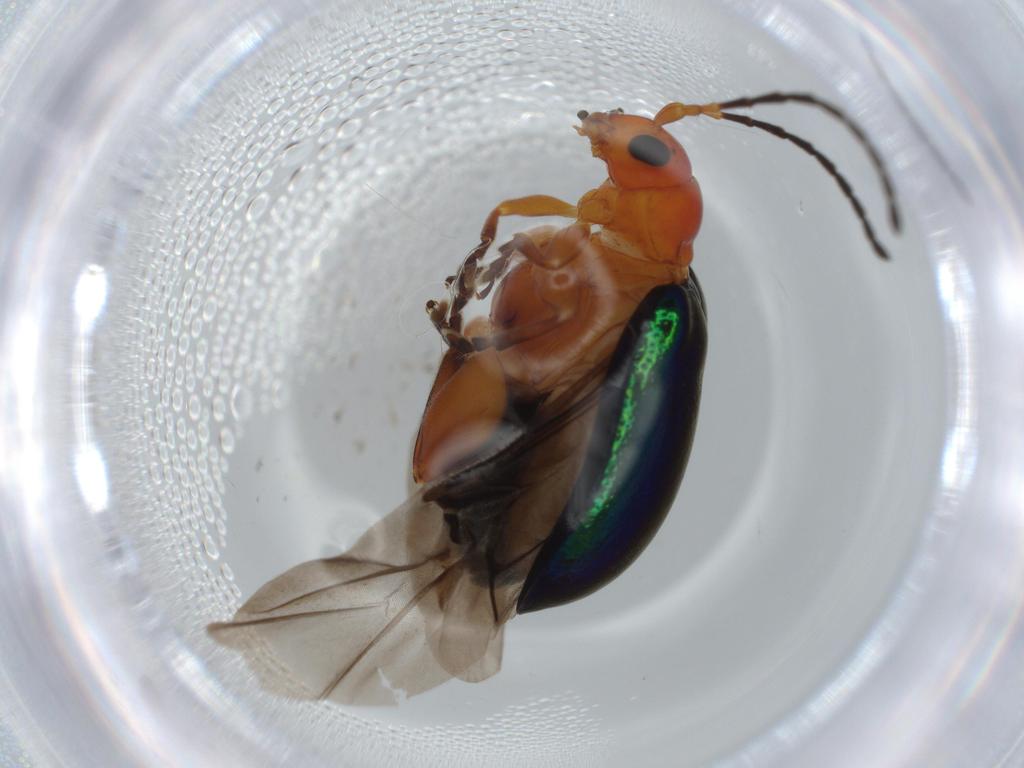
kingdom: Animalia
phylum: Arthropoda
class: Insecta
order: Coleoptera
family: Chrysomelidae
